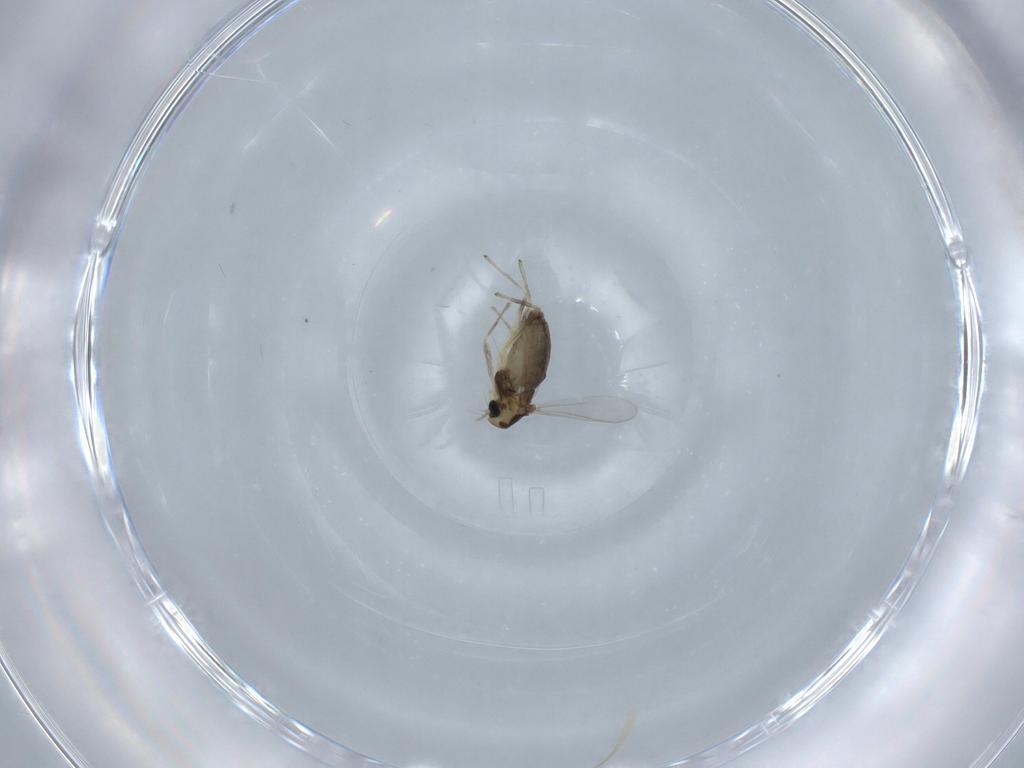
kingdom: Animalia
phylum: Arthropoda
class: Insecta
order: Diptera
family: Chironomidae
